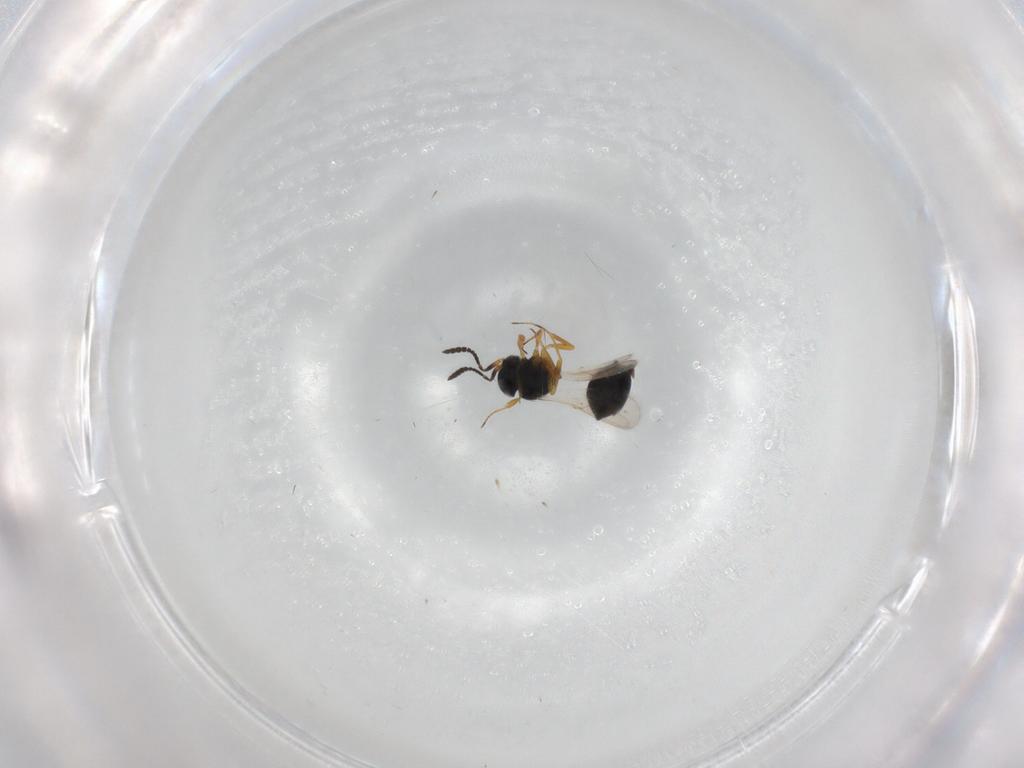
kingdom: Animalia
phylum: Arthropoda
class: Insecta
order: Hymenoptera
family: Scelionidae
